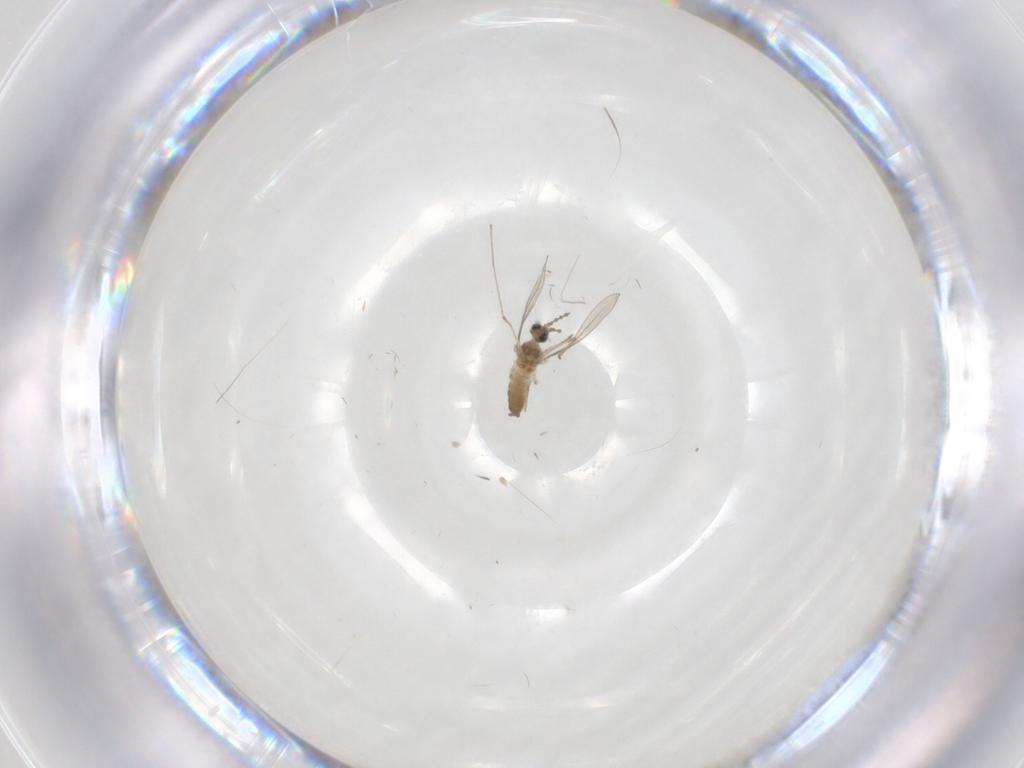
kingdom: Animalia
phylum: Arthropoda
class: Insecta
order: Diptera
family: Cecidomyiidae
